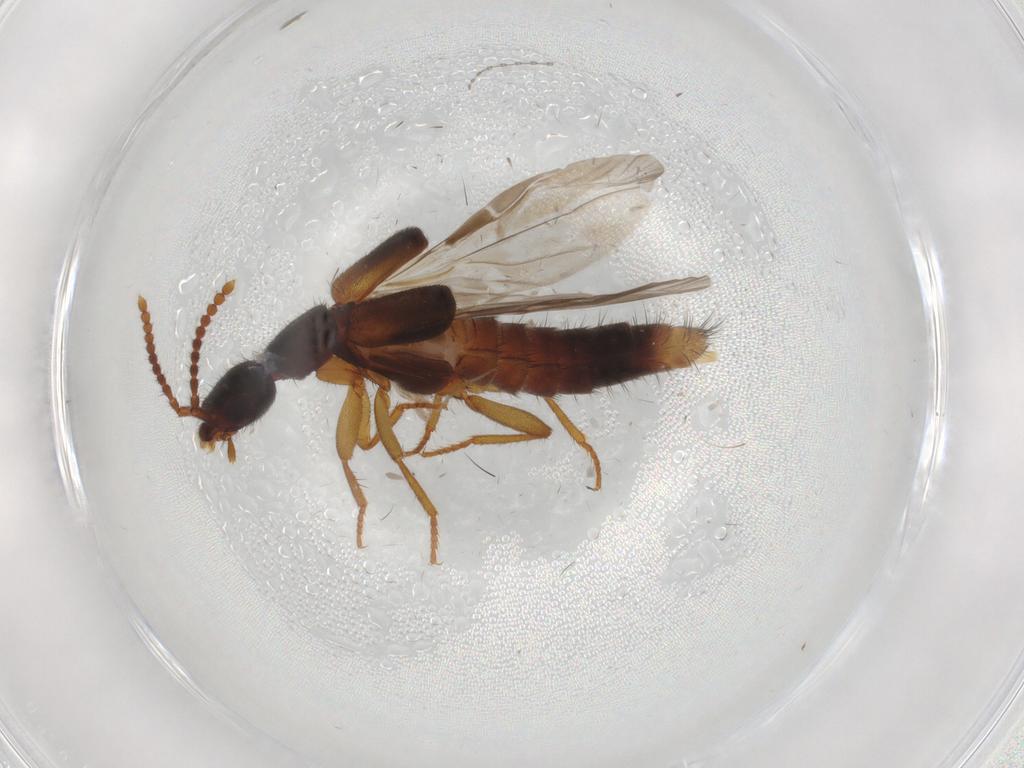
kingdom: Animalia
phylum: Arthropoda
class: Insecta
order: Coleoptera
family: Staphylinidae
